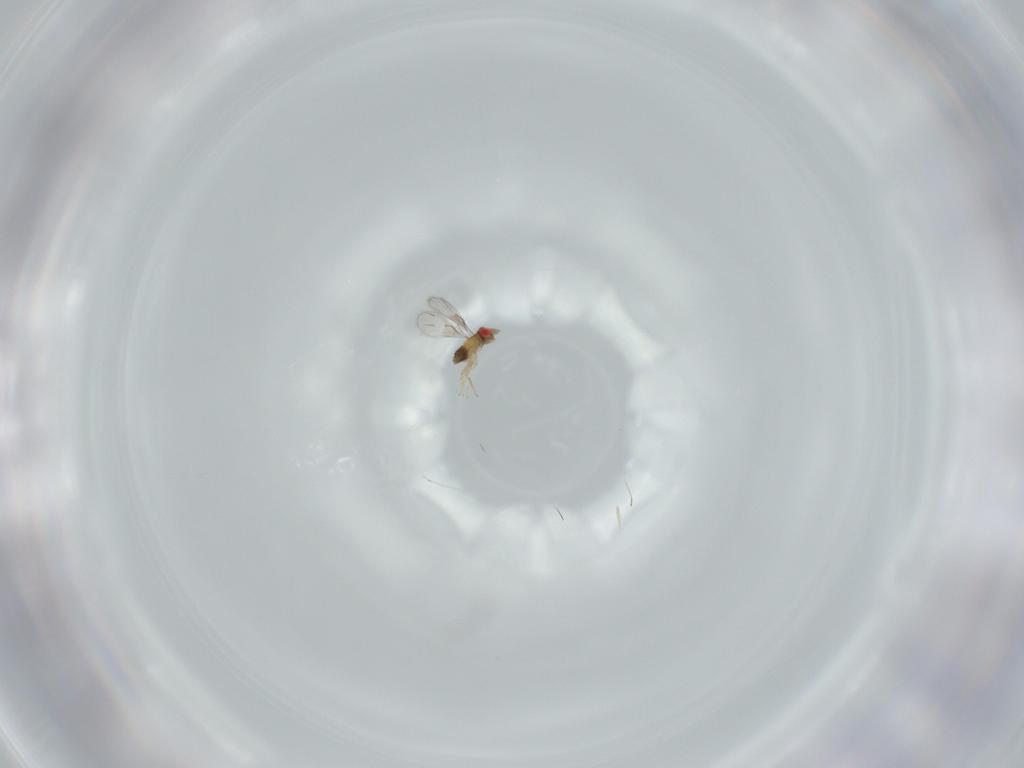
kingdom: Animalia
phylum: Arthropoda
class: Insecta
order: Hymenoptera
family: Trichogrammatidae
